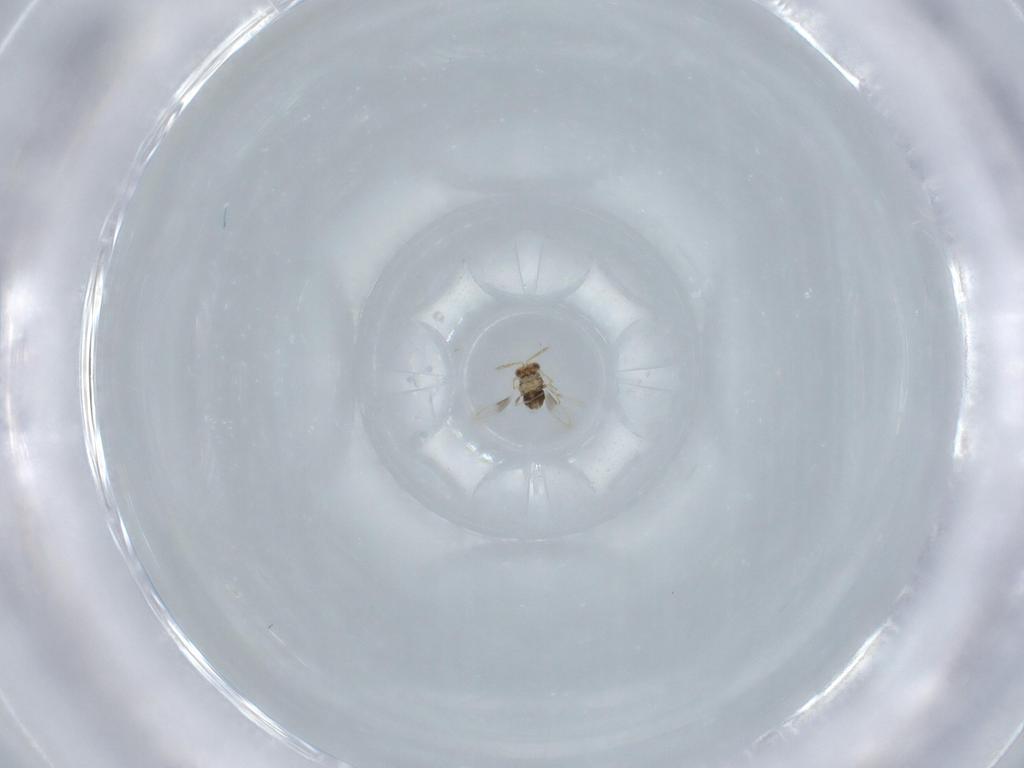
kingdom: Animalia
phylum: Arthropoda
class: Insecta
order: Hymenoptera
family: Aphelinidae
